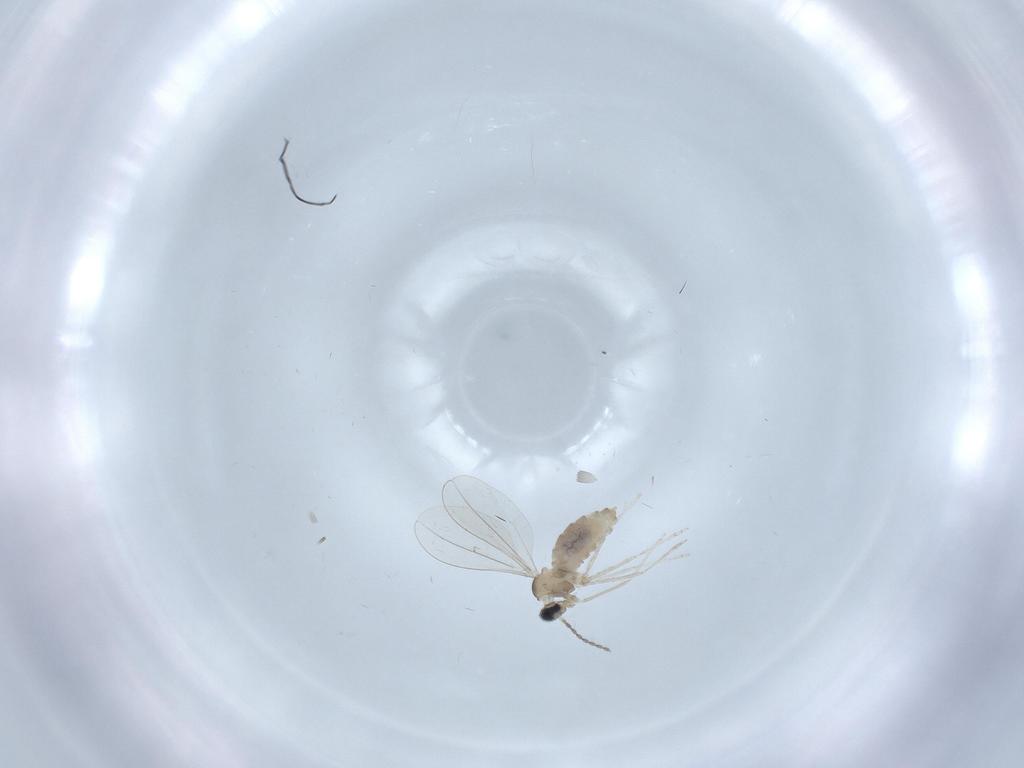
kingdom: Animalia
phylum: Arthropoda
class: Insecta
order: Diptera
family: Cecidomyiidae
